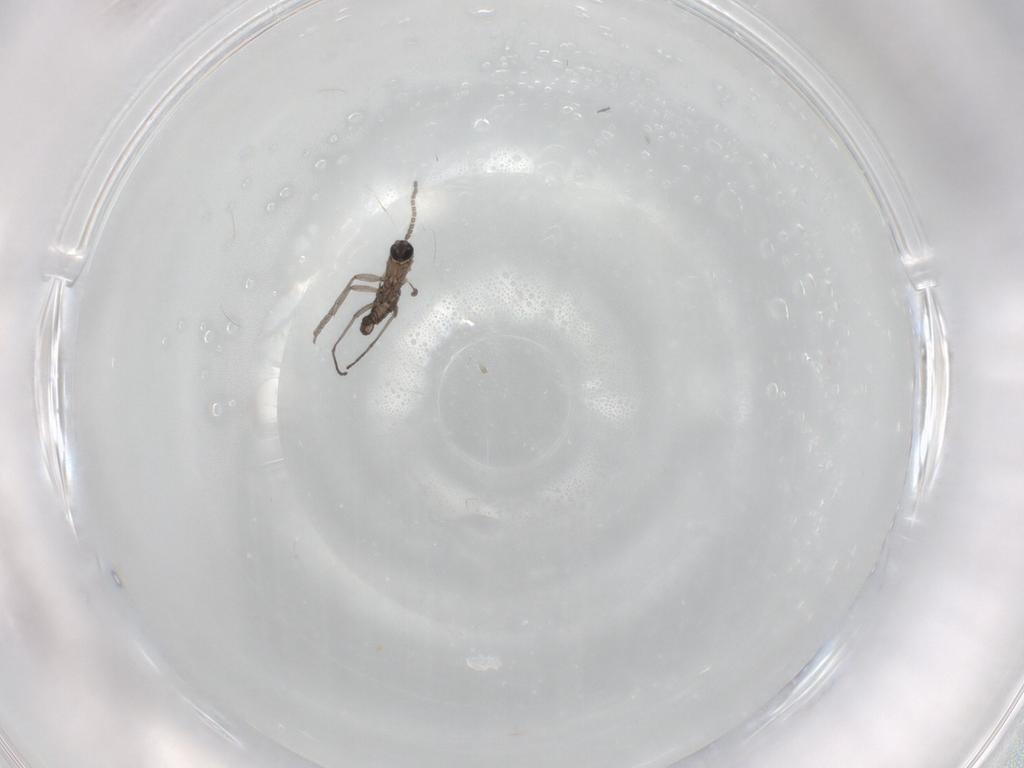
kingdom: Animalia
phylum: Arthropoda
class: Insecta
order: Diptera
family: Sciaridae
